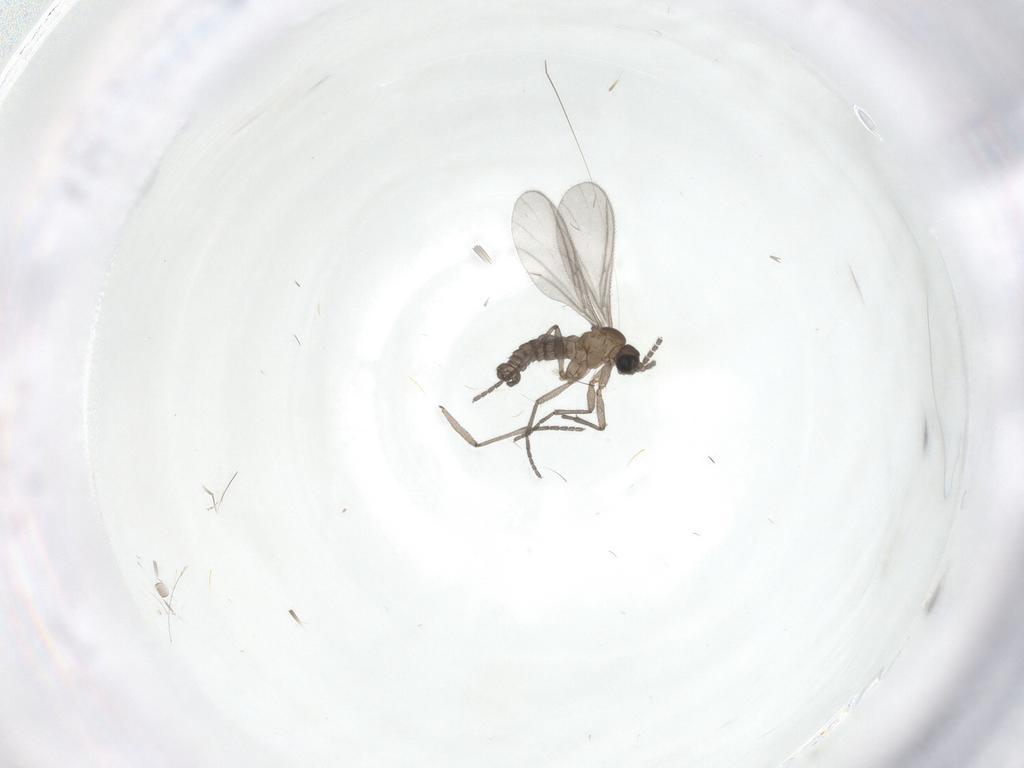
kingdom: Animalia
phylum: Arthropoda
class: Insecta
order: Diptera
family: Sciaridae
